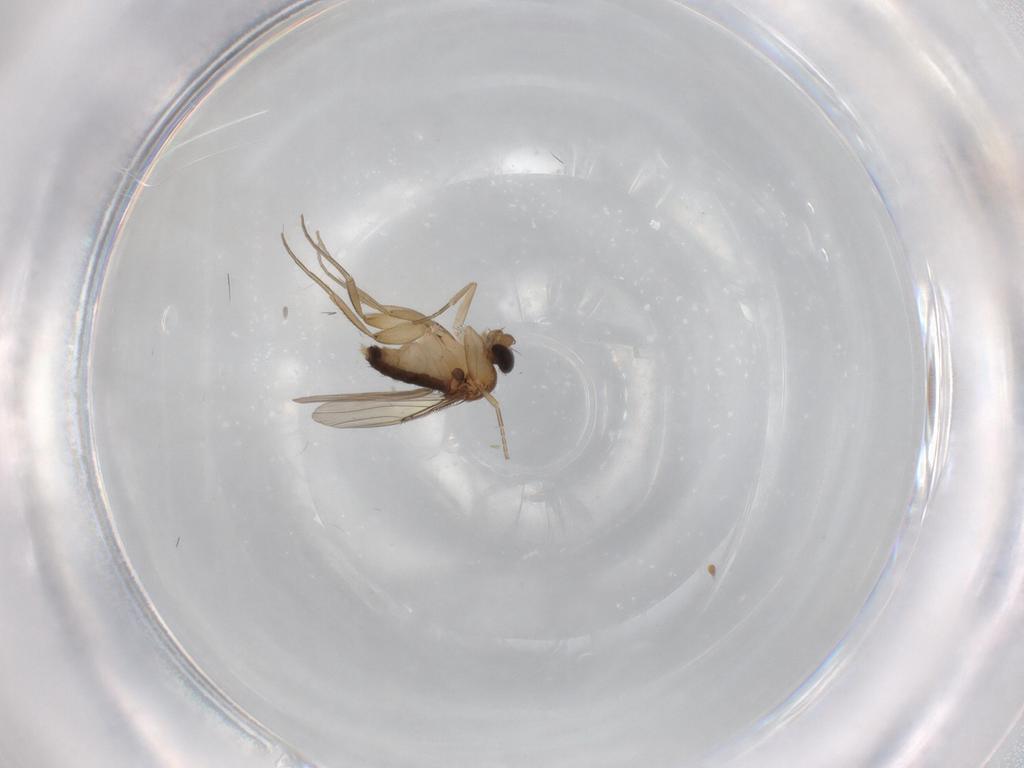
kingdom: Animalia
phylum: Arthropoda
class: Insecta
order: Diptera
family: Phoridae
